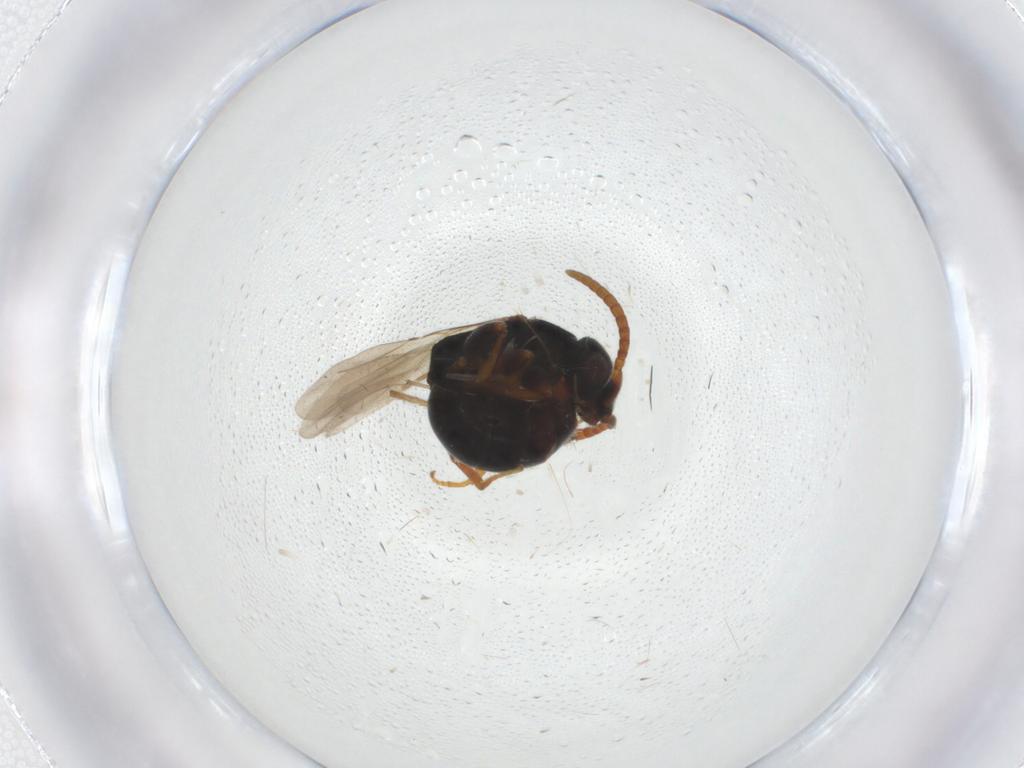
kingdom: Animalia
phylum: Arthropoda
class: Insecta
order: Hymenoptera
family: Bethylidae
